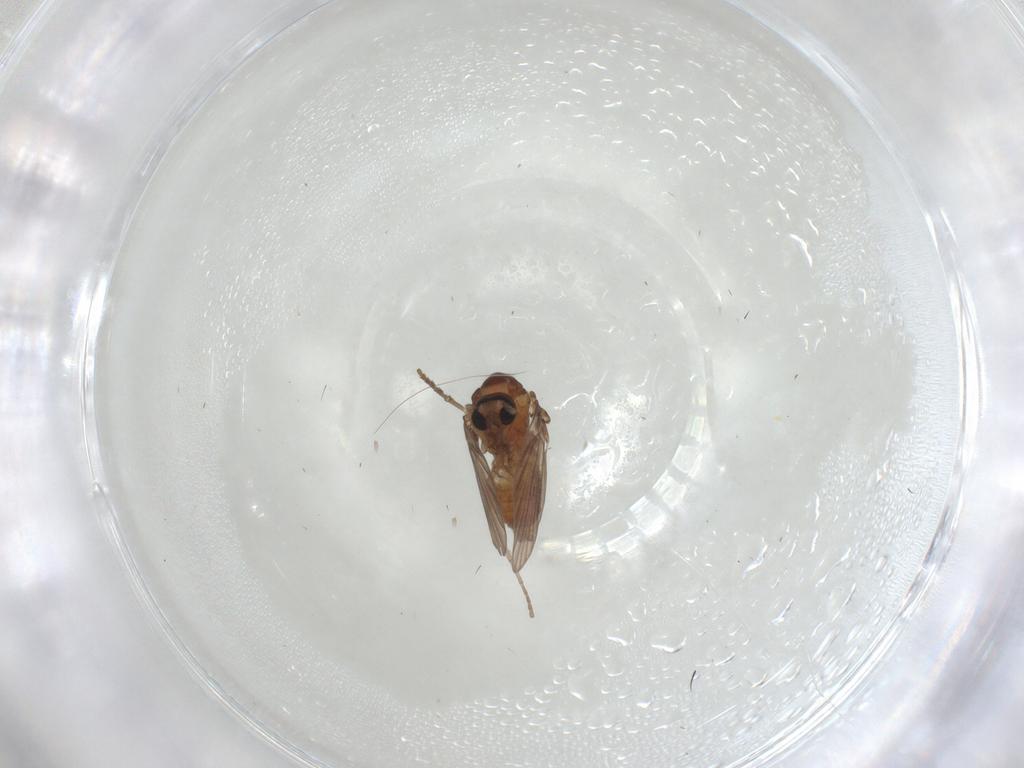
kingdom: Animalia
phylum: Arthropoda
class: Insecta
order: Diptera
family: Psychodidae
